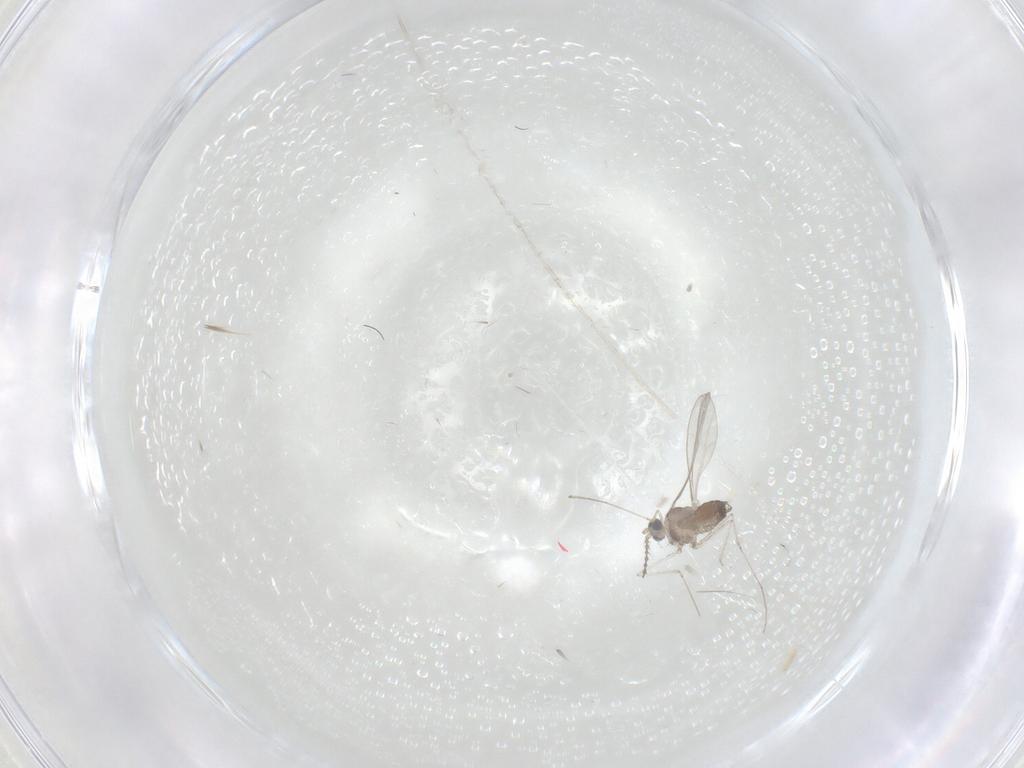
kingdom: Animalia
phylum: Arthropoda
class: Insecta
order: Diptera
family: Cecidomyiidae
